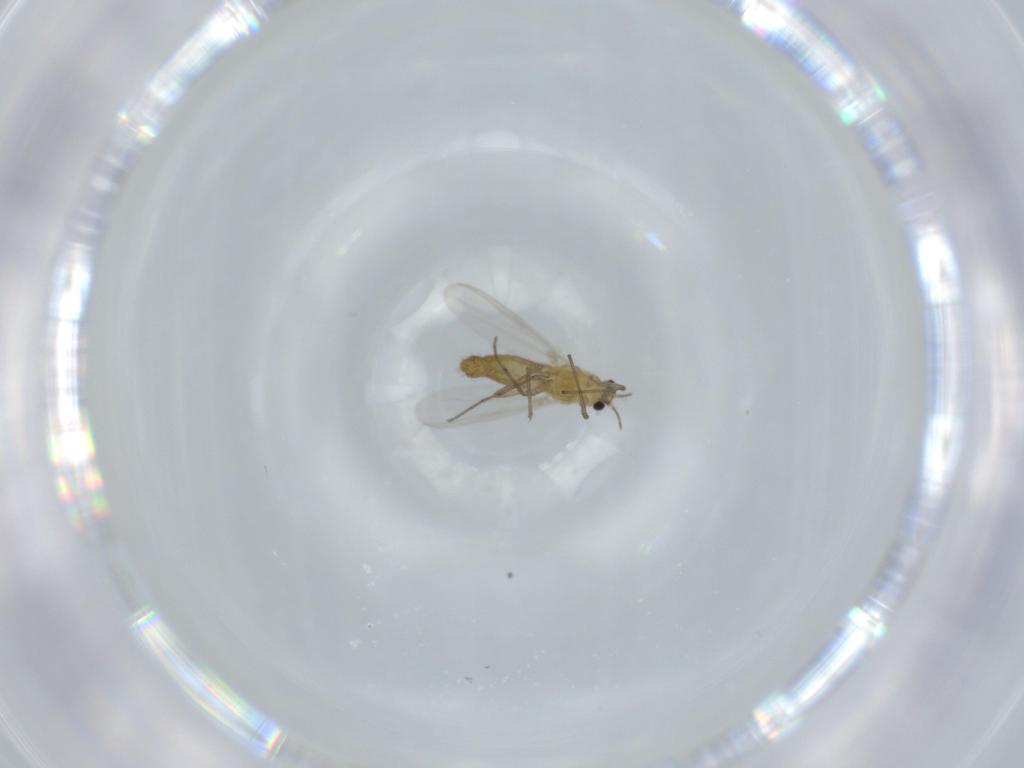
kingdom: Animalia
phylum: Arthropoda
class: Insecta
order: Diptera
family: Chironomidae
